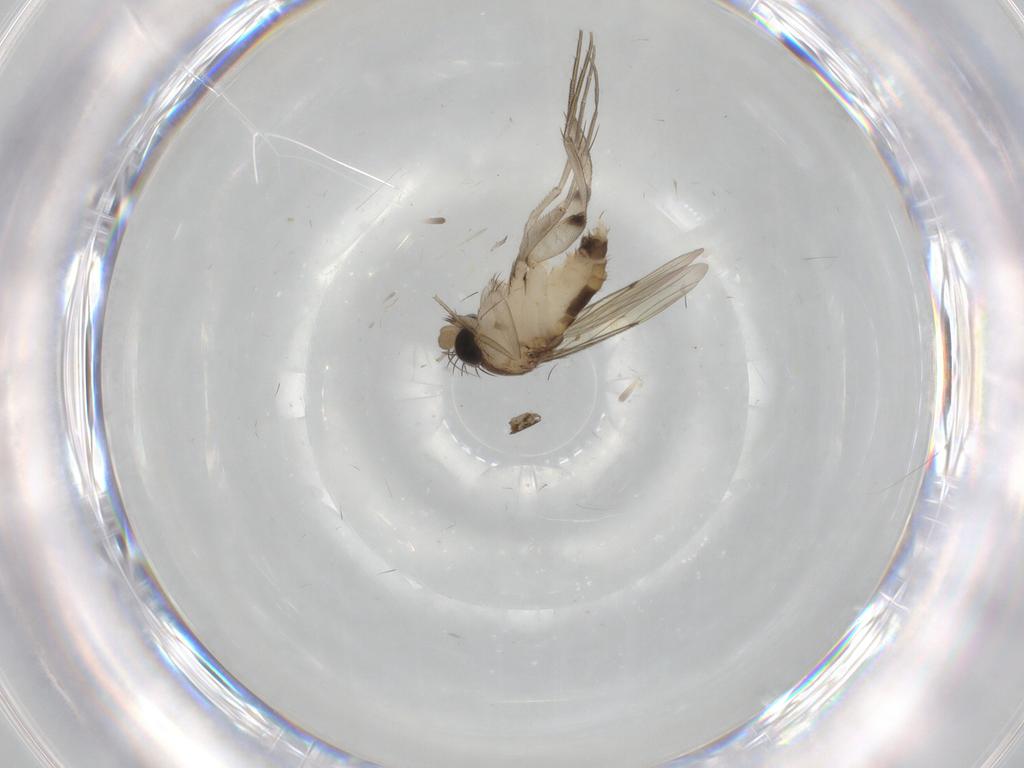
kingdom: Animalia
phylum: Arthropoda
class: Insecta
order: Diptera
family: Sciaridae
